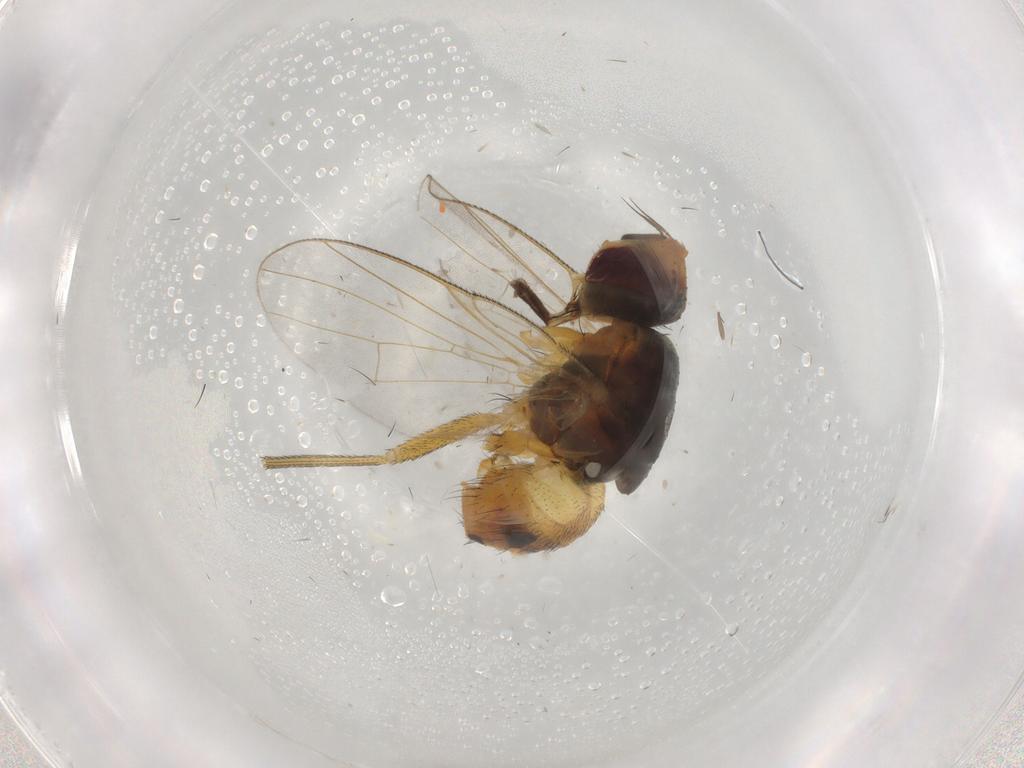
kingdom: Animalia
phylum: Arthropoda
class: Insecta
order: Diptera
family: Muscidae
